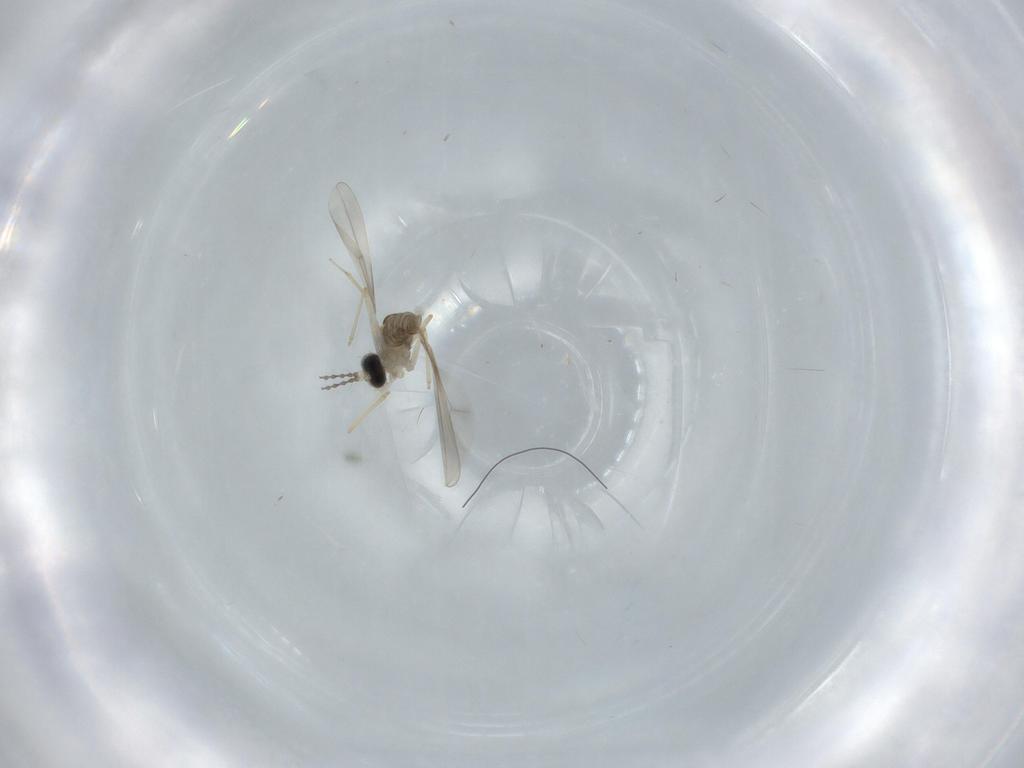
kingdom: Animalia
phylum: Arthropoda
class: Insecta
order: Diptera
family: Cecidomyiidae
